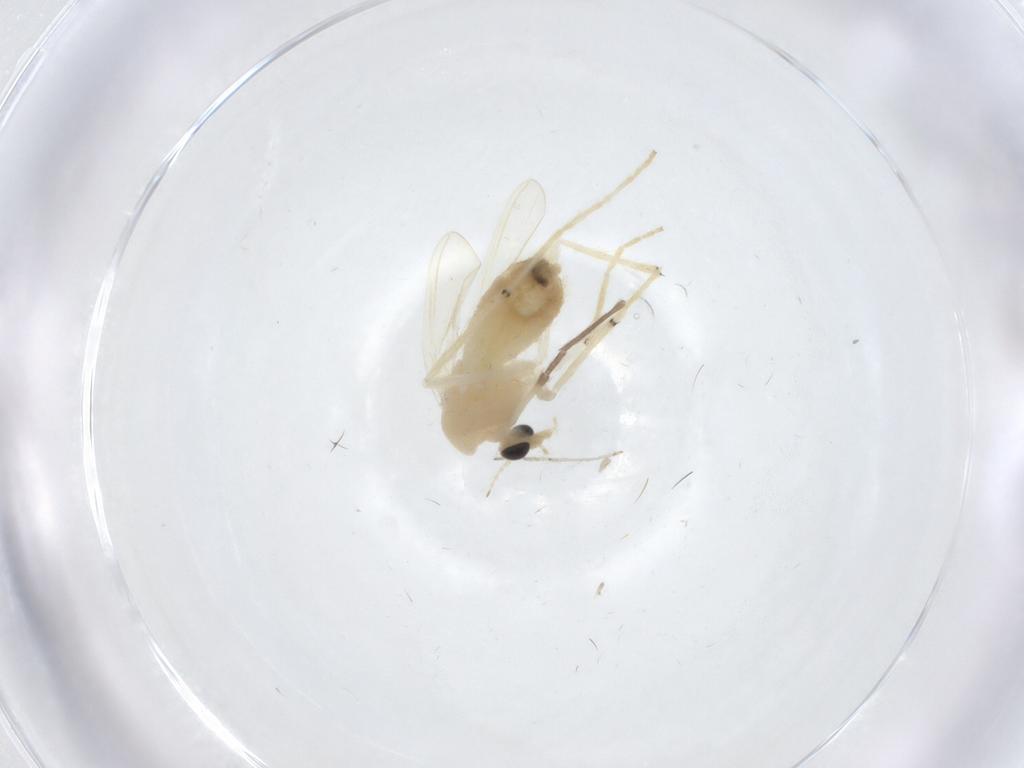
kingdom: Animalia
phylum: Arthropoda
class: Insecta
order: Diptera
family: Chironomidae
